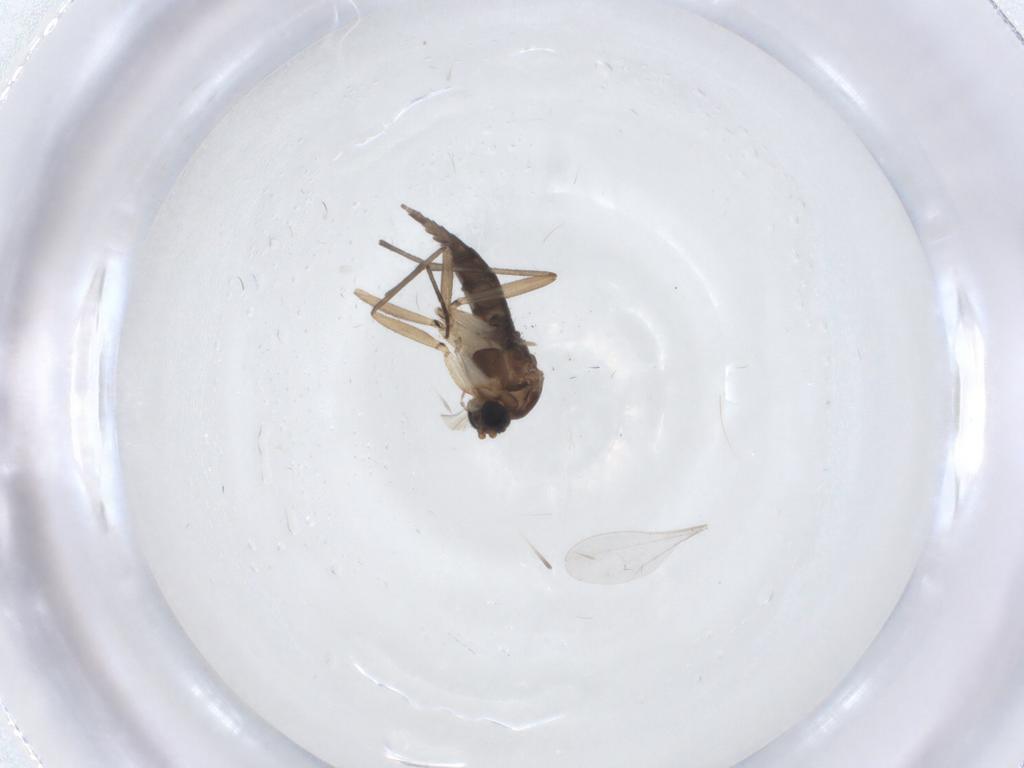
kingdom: Animalia
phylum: Arthropoda
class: Insecta
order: Diptera
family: Sciaridae
